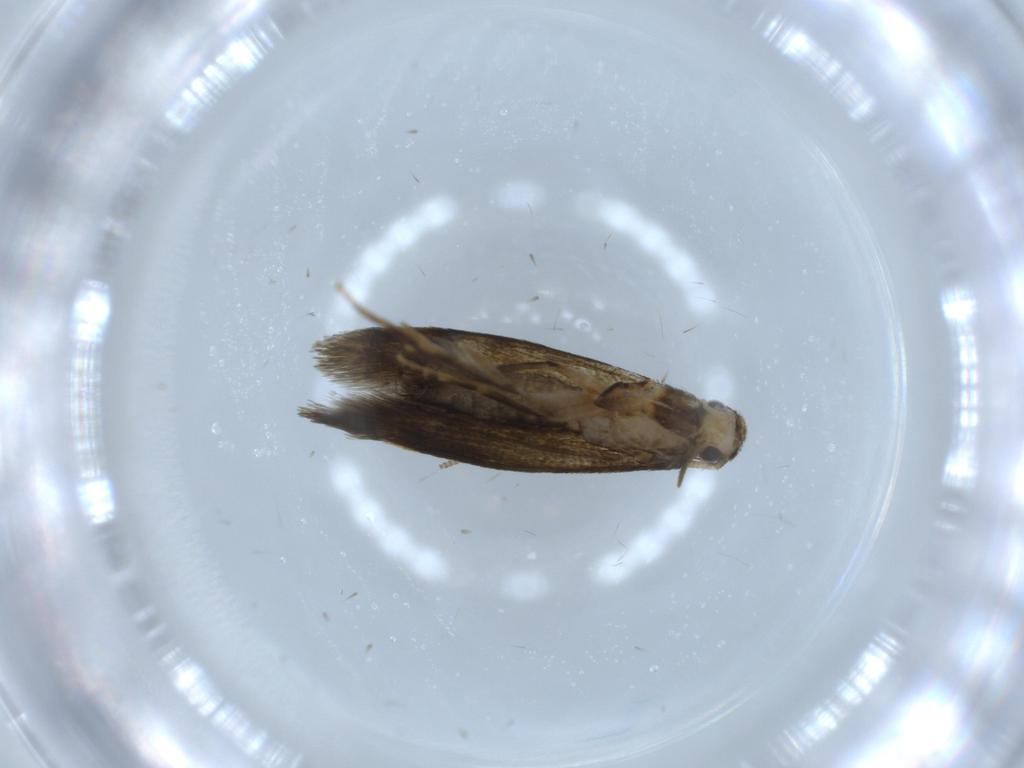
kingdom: Animalia
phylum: Arthropoda
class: Insecta
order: Lepidoptera
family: Tineidae
